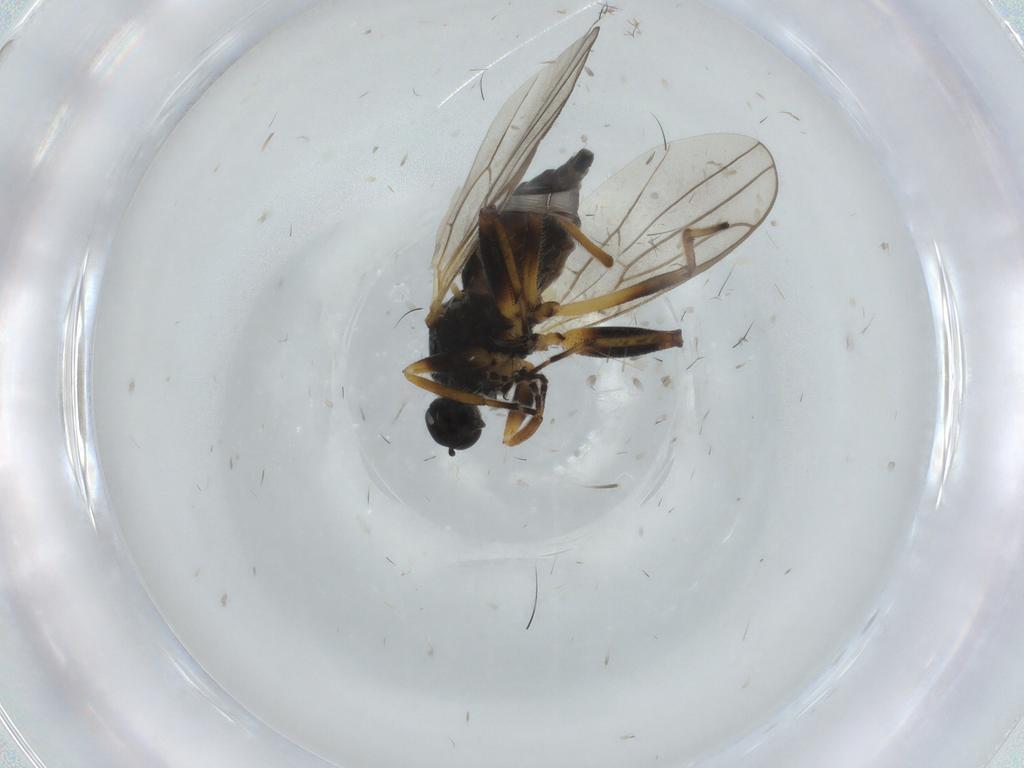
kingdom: Animalia
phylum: Arthropoda
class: Insecta
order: Diptera
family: Hybotidae
